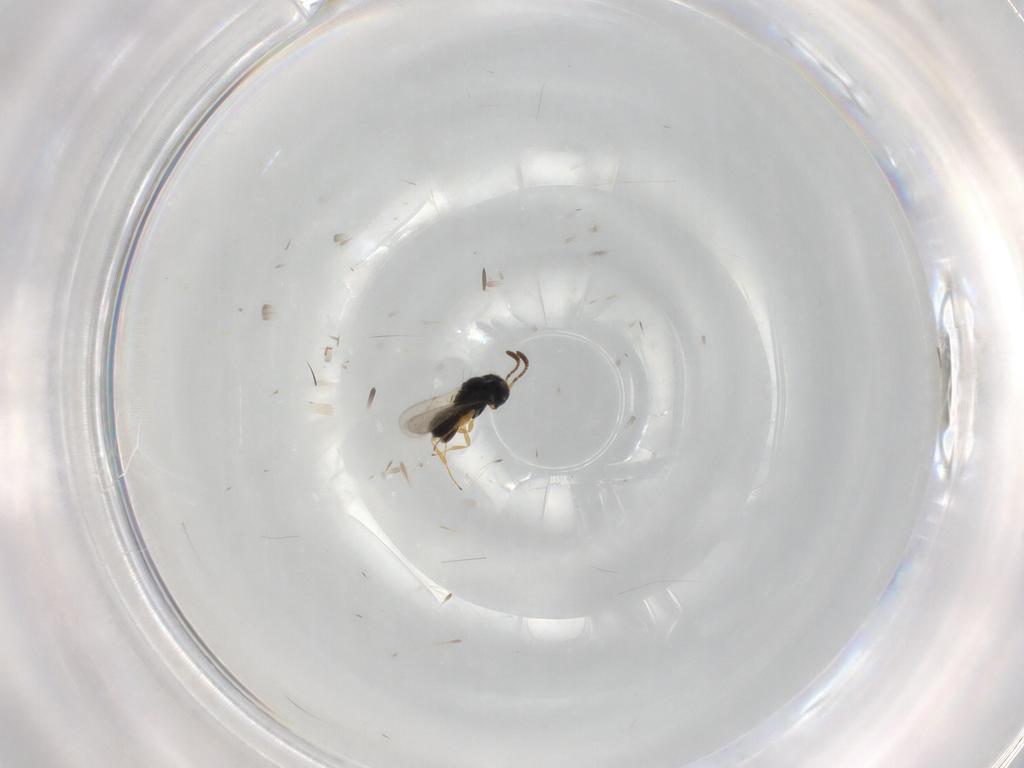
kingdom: Animalia
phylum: Arthropoda
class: Insecta
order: Hymenoptera
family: Scelionidae
